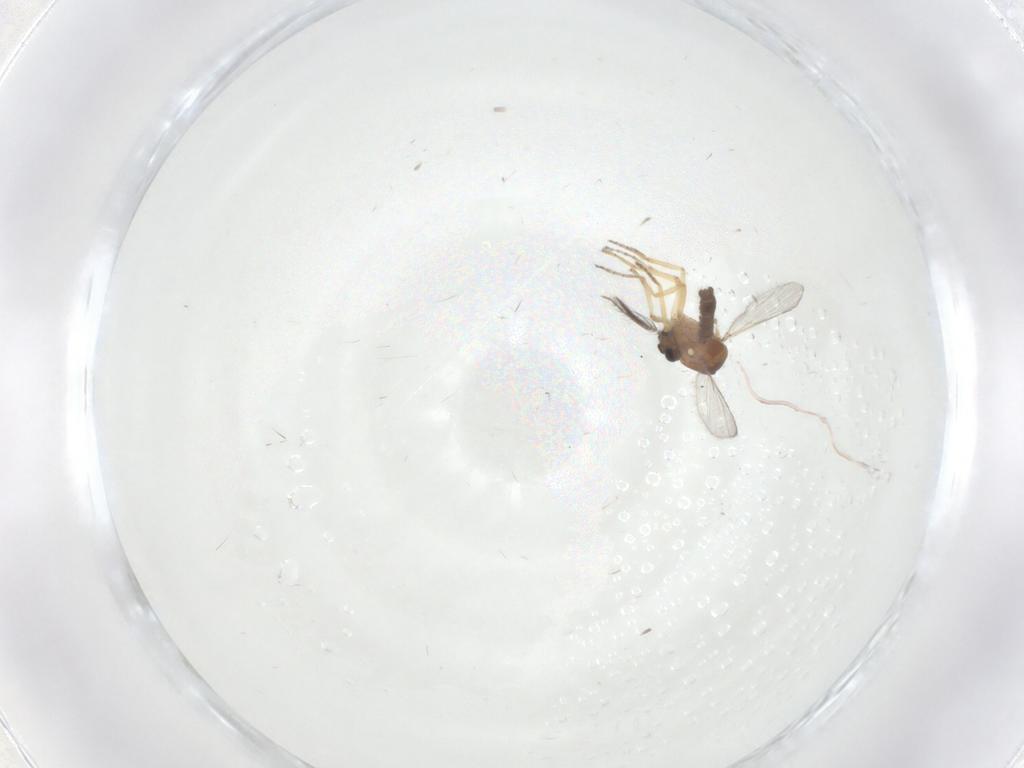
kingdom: Animalia
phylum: Arthropoda
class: Insecta
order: Diptera
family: Ceratopogonidae
